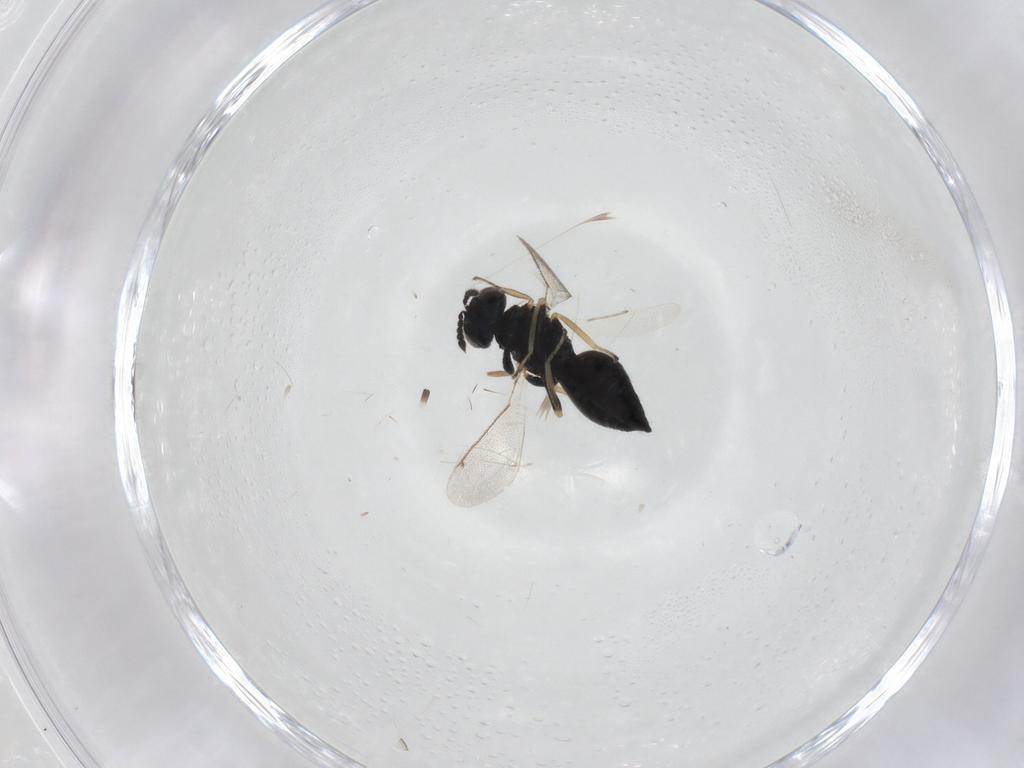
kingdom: Animalia
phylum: Arthropoda
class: Insecta
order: Hymenoptera
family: Eulophidae
